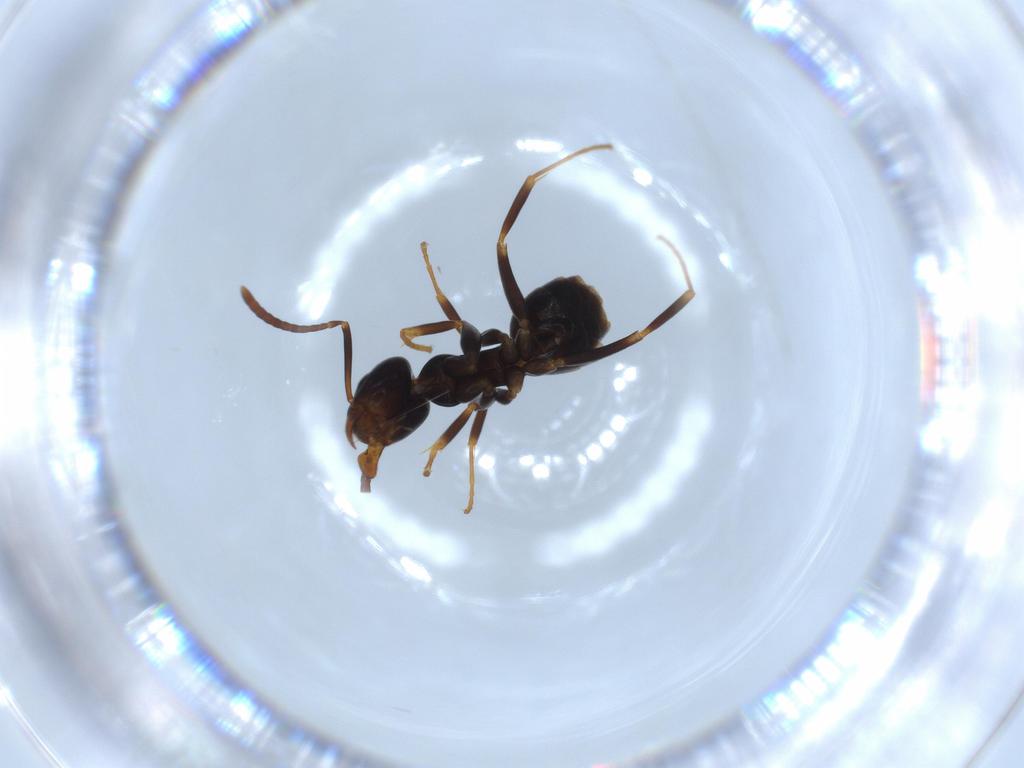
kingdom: Animalia
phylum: Arthropoda
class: Insecta
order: Hymenoptera
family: Formicidae
